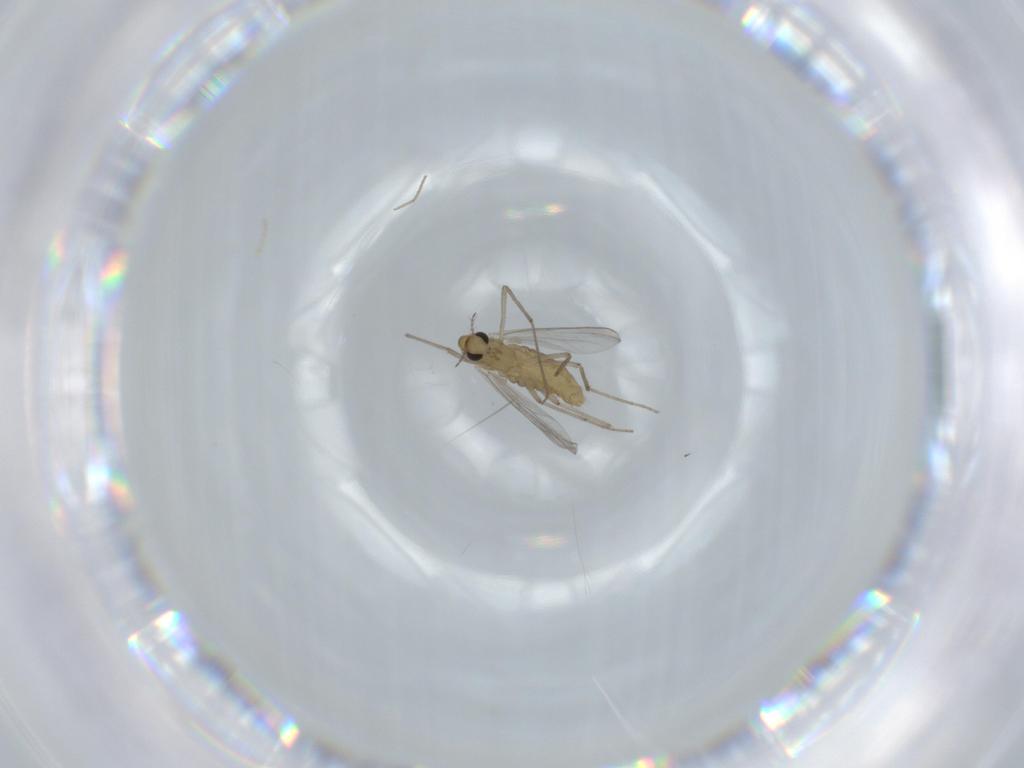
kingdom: Animalia
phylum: Arthropoda
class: Insecta
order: Diptera
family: Chironomidae
